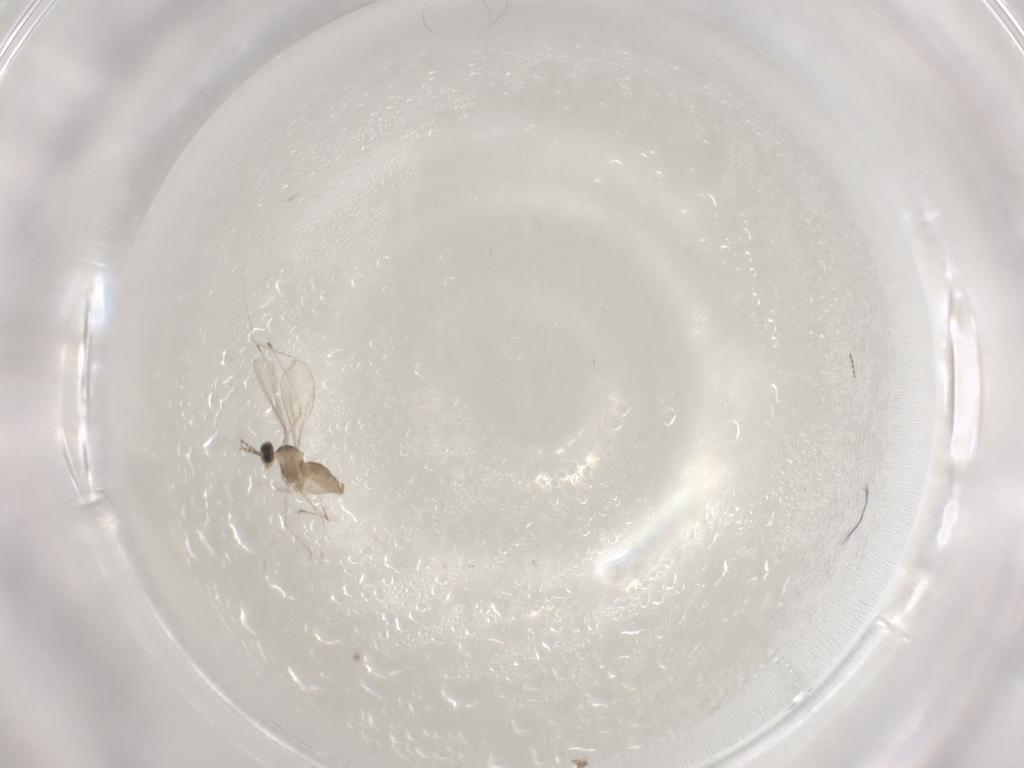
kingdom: Animalia
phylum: Arthropoda
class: Insecta
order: Diptera
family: Cecidomyiidae
